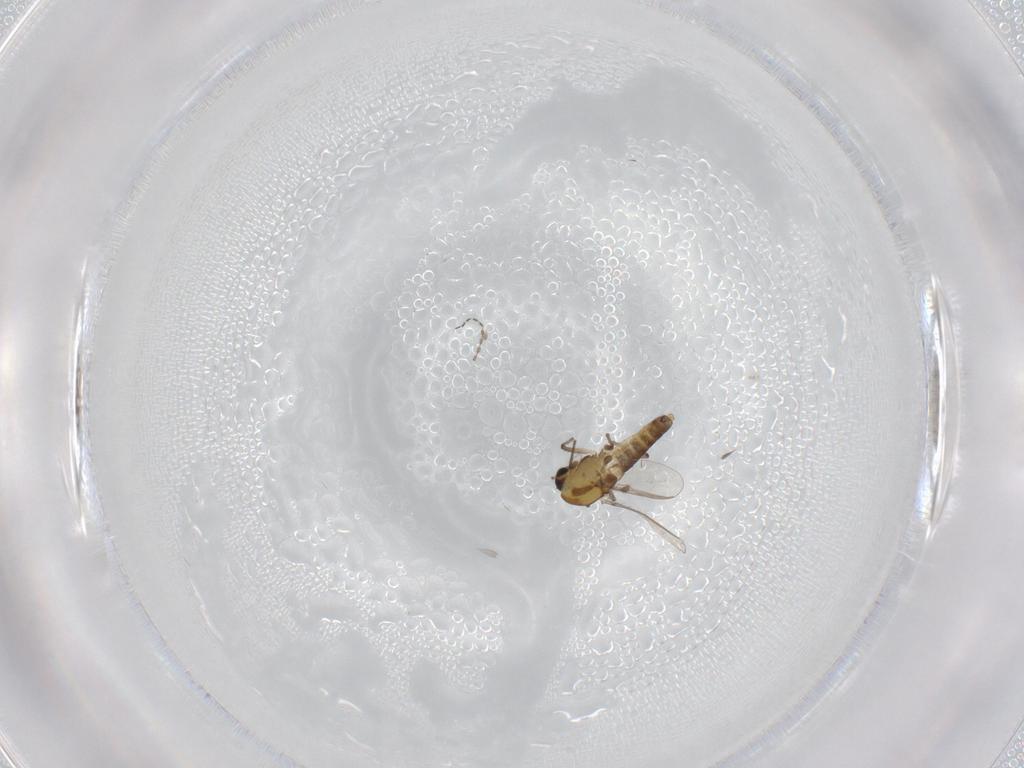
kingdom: Animalia
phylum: Arthropoda
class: Insecta
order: Diptera
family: Chironomidae
